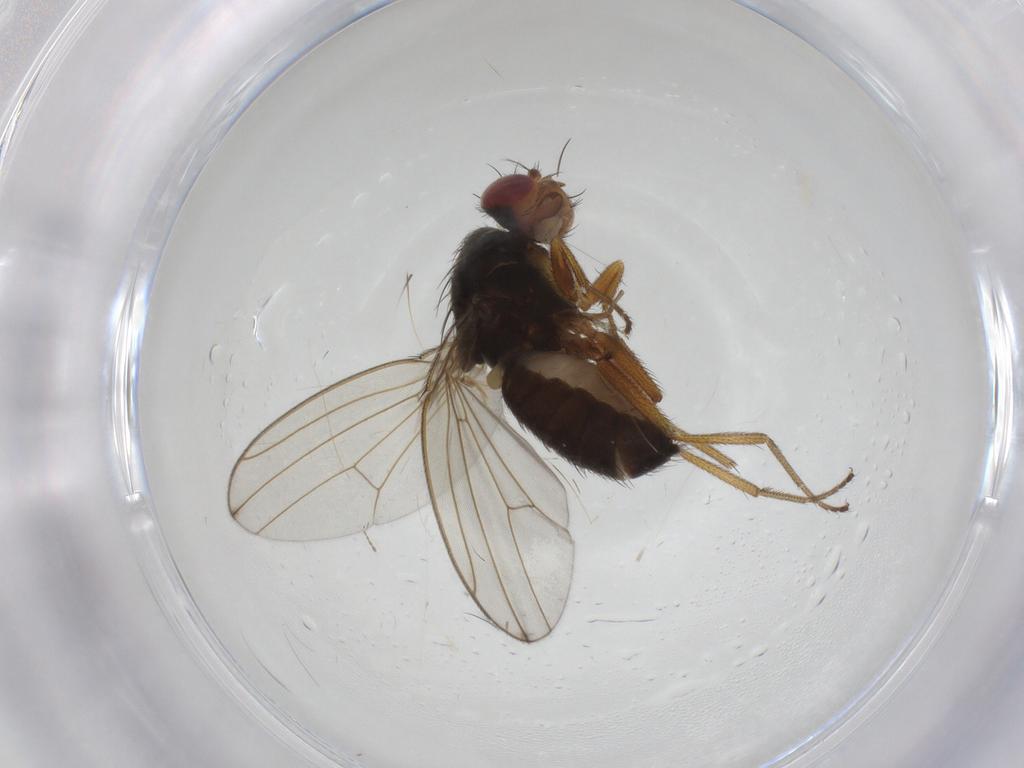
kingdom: Animalia
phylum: Arthropoda
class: Insecta
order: Diptera
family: Drosophilidae
